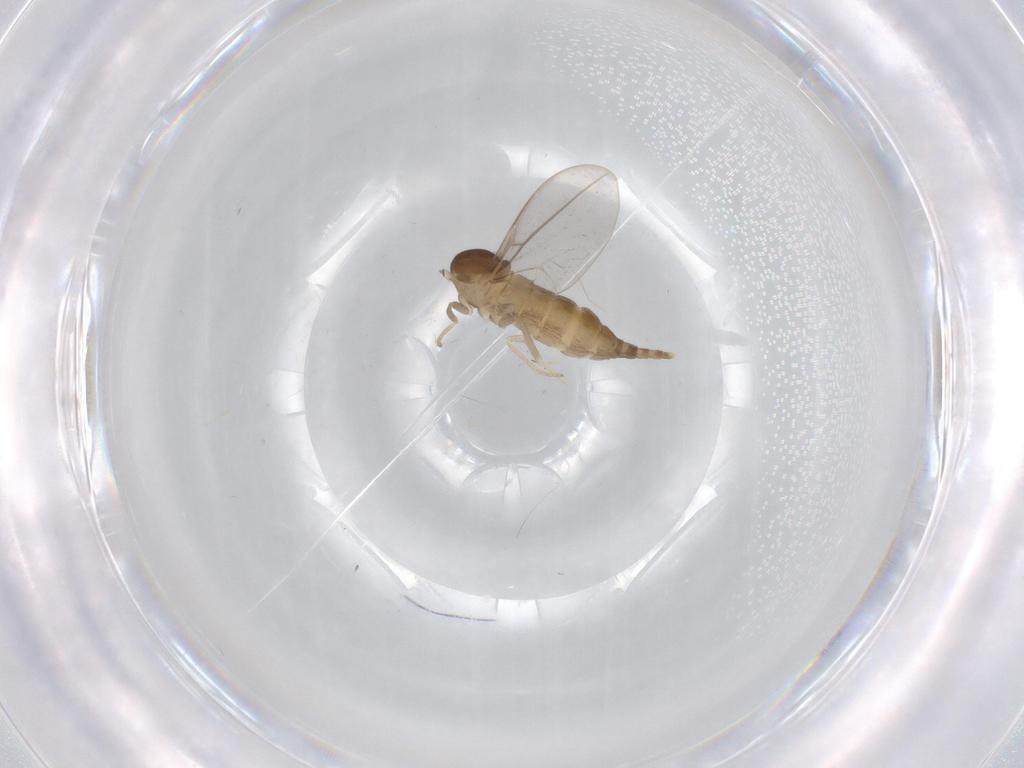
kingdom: Animalia
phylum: Arthropoda
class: Insecta
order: Diptera
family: Cecidomyiidae
